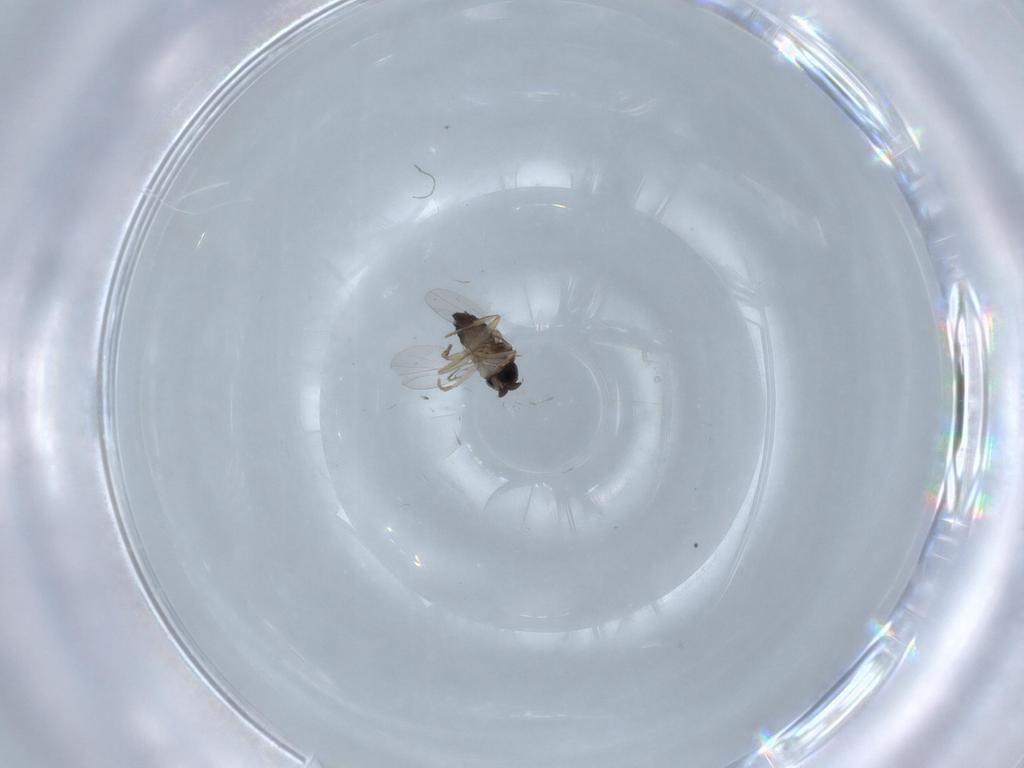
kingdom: Animalia
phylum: Arthropoda
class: Insecta
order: Diptera
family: Phoridae
